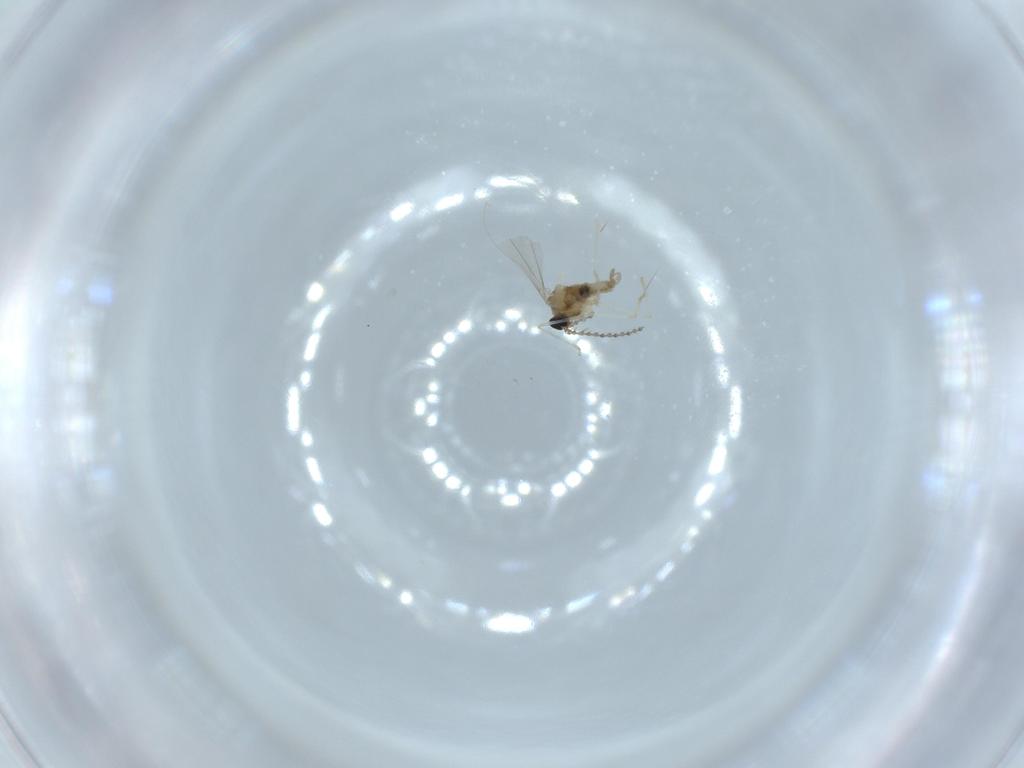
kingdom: Animalia
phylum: Arthropoda
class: Insecta
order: Diptera
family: Cecidomyiidae
